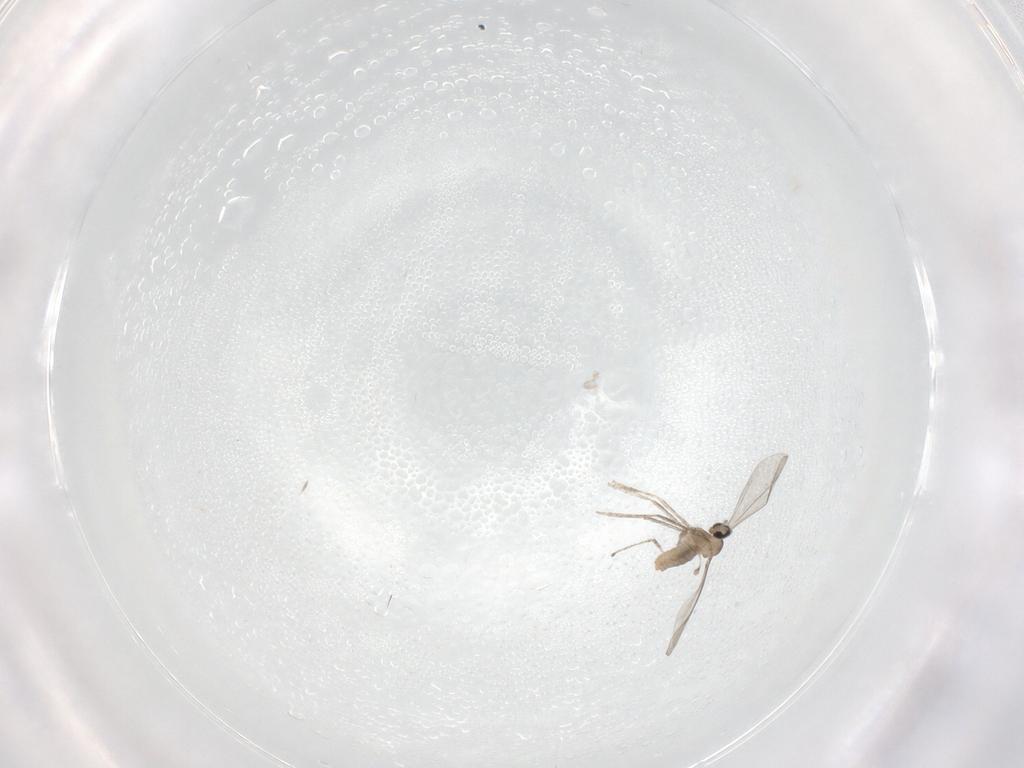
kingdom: Animalia
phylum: Arthropoda
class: Insecta
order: Diptera
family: Cecidomyiidae
